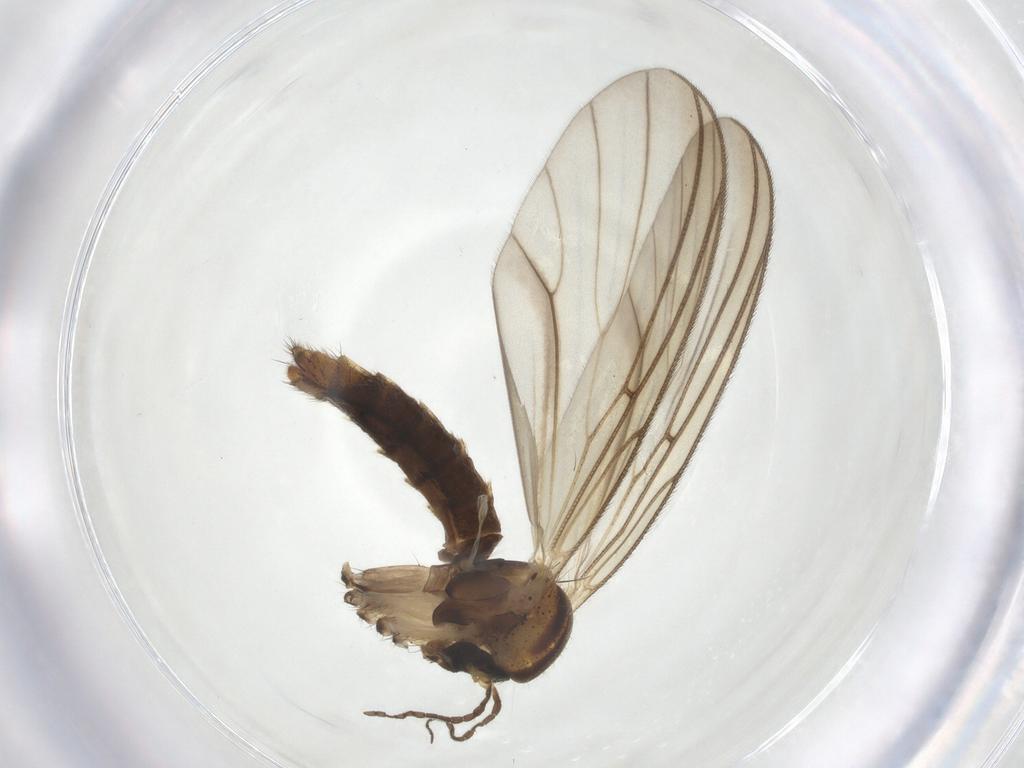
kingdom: Animalia
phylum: Arthropoda
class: Insecta
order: Diptera
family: Mycetophilidae
